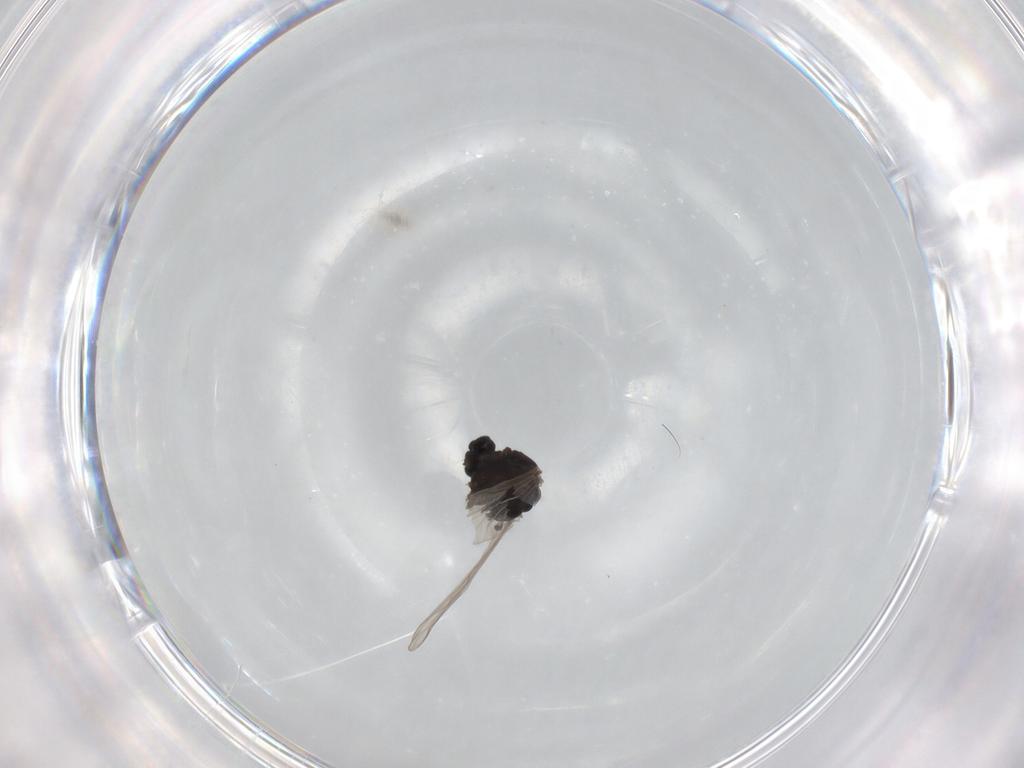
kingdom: Animalia
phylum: Arthropoda
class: Insecta
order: Diptera
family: Chironomidae
